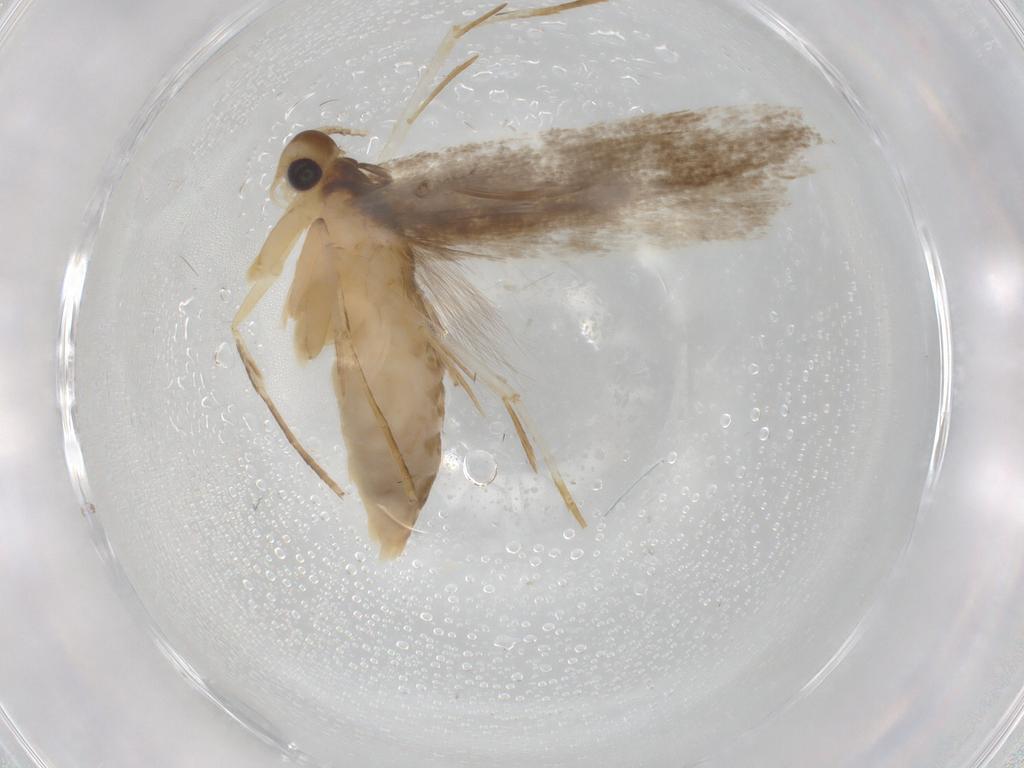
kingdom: Animalia
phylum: Arthropoda
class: Insecta
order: Lepidoptera
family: Lecithoceridae
